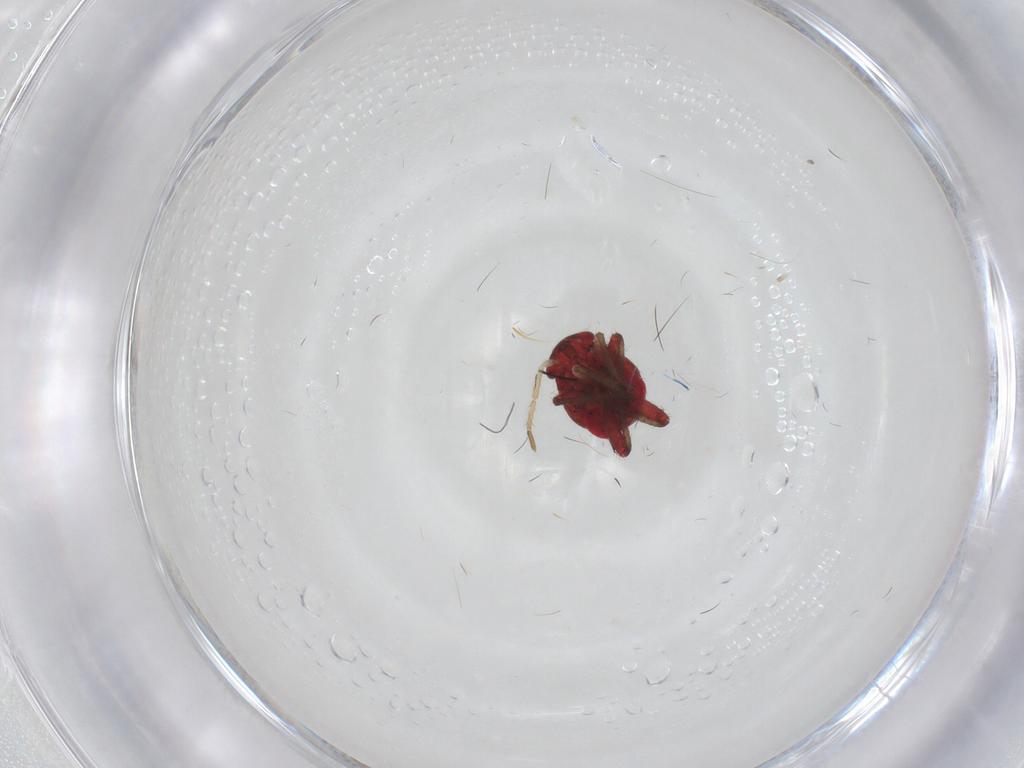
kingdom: Animalia
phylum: Arthropoda
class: Insecta
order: Hemiptera
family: Miridae
